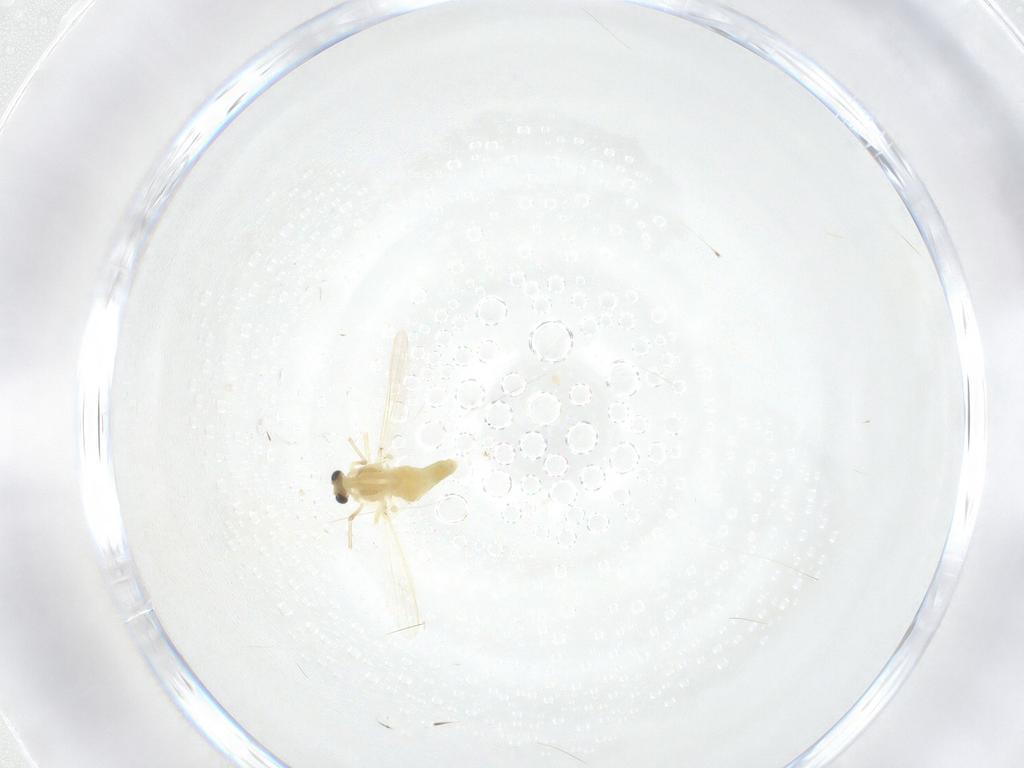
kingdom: Animalia
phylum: Arthropoda
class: Insecta
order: Diptera
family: Chironomidae
